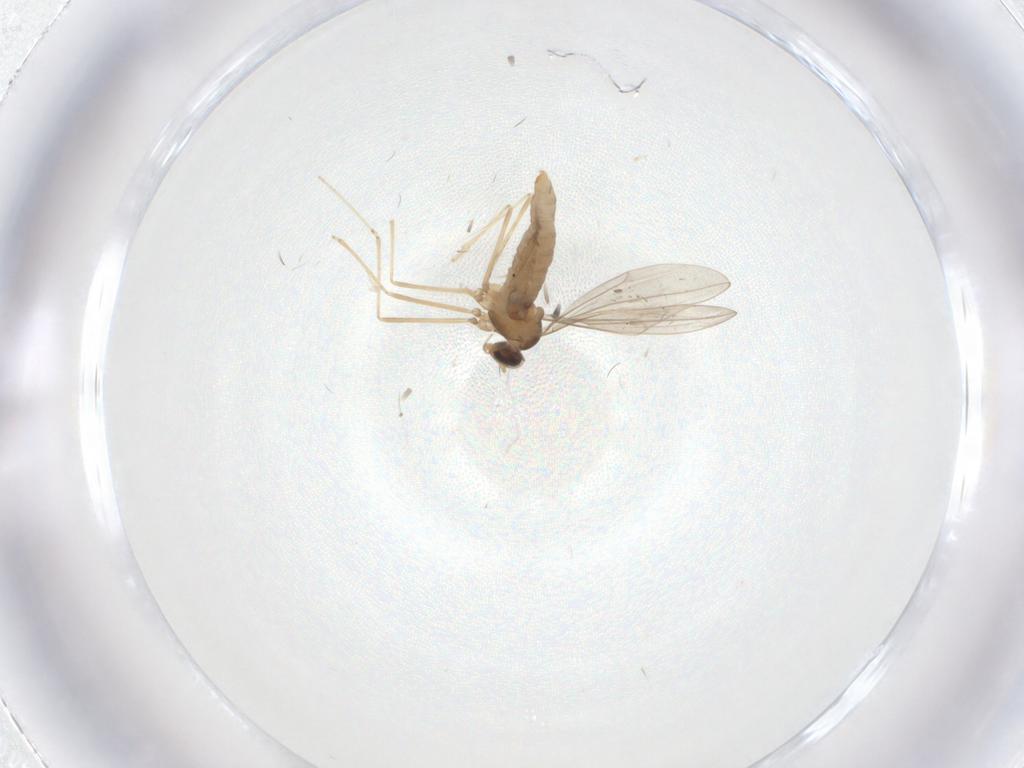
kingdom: Animalia
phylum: Arthropoda
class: Insecta
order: Diptera
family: Cecidomyiidae
